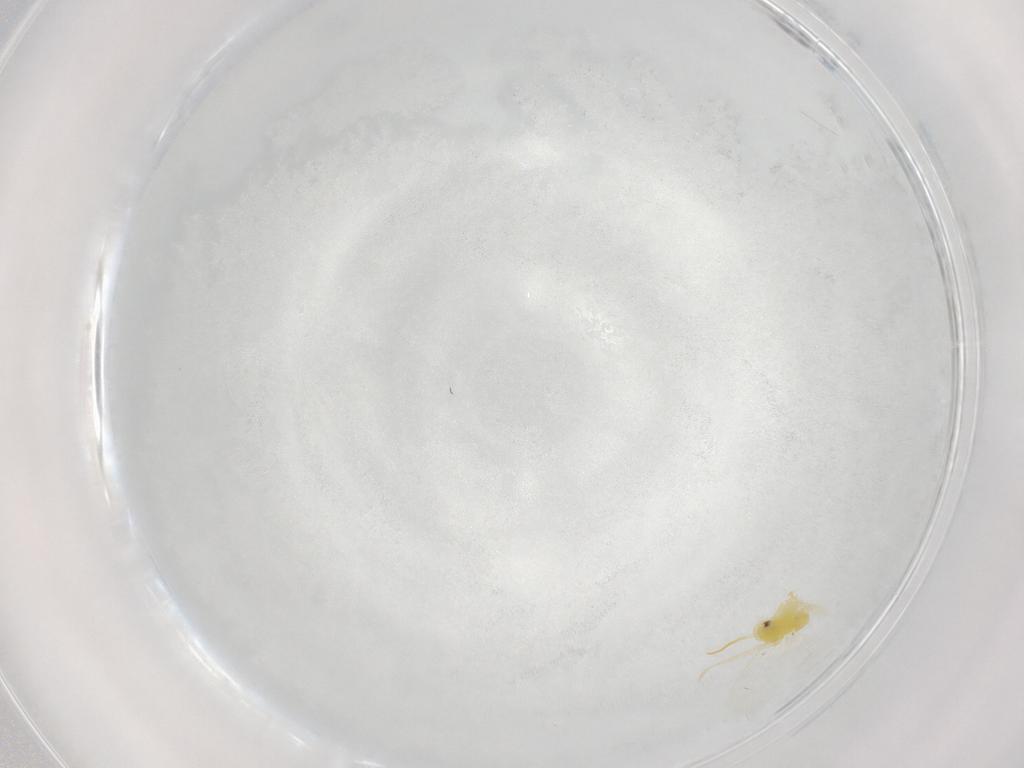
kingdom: Animalia
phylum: Arthropoda
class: Insecta
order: Hemiptera
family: Aleyrodidae
